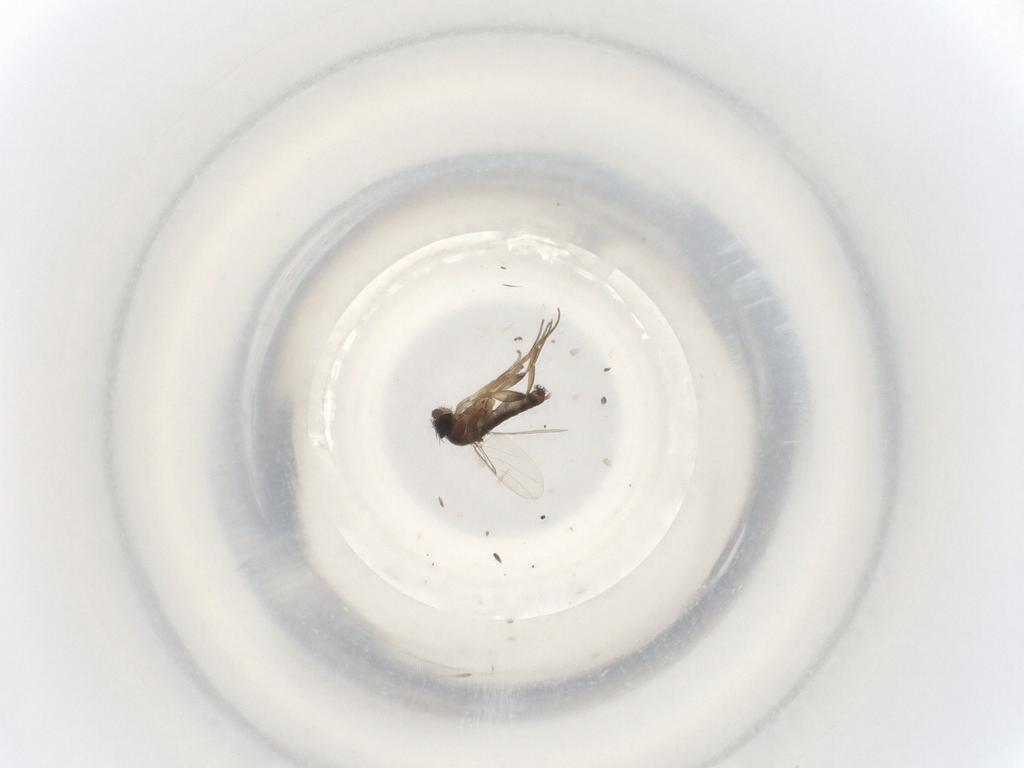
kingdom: Animalia
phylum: Arthropoda
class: Insecta
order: Diptera
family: Phoridae
